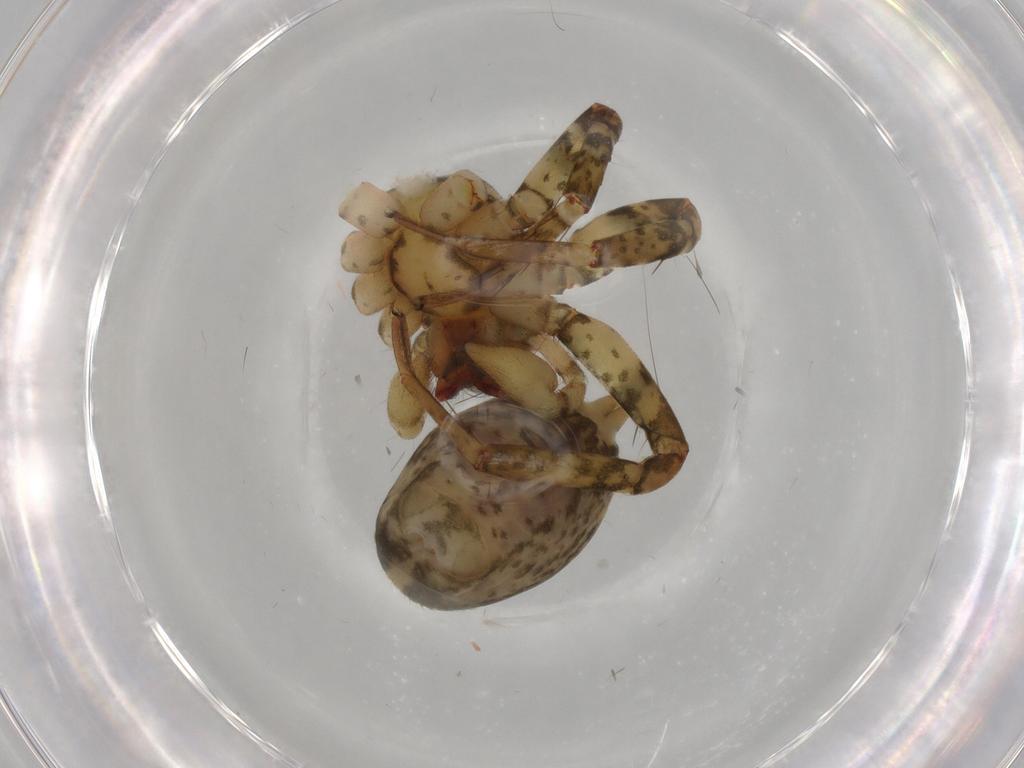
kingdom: Animalia
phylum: Arthropoda
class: Arachnida
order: Araneae
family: Anyphaenidae
